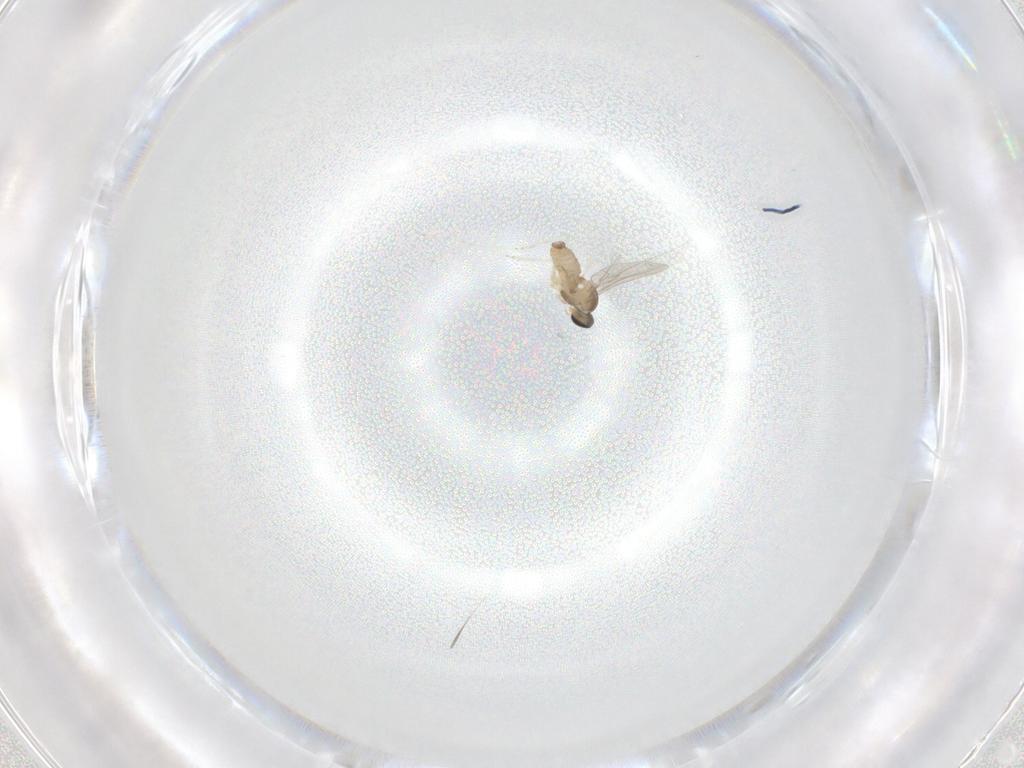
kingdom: Animalia
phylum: Arthropoda
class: Insecta
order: Diptera
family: Cecidomyiidae
